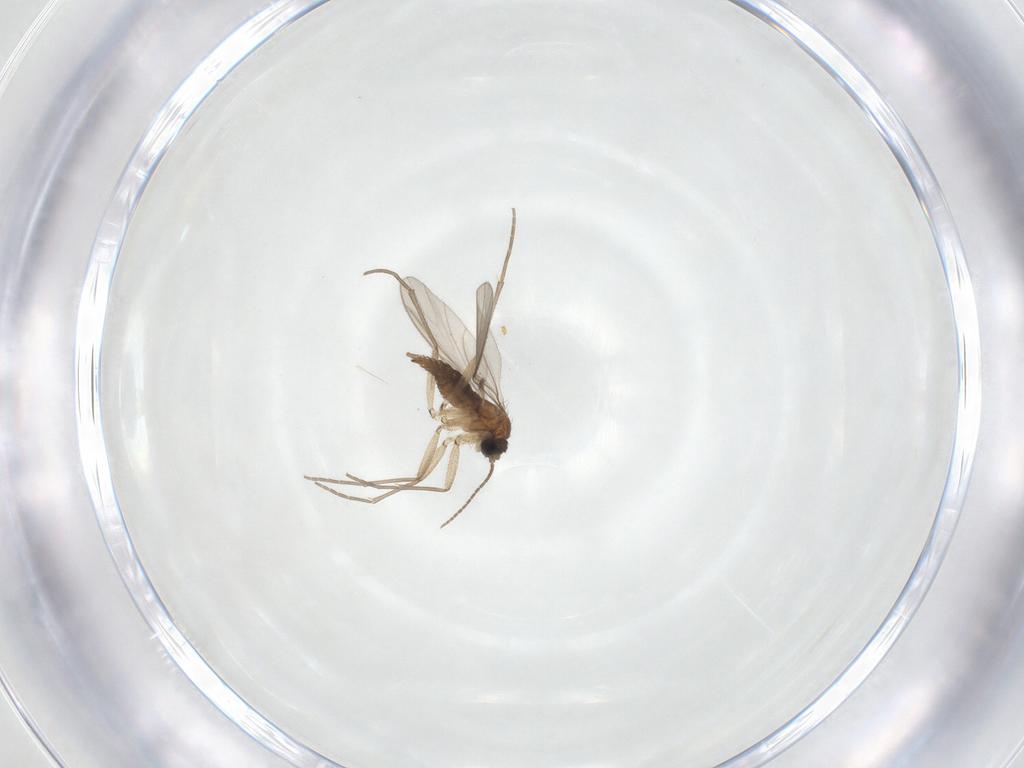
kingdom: Animalia
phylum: Arthropoda
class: Insecta
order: Diptera
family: Sciaridae
